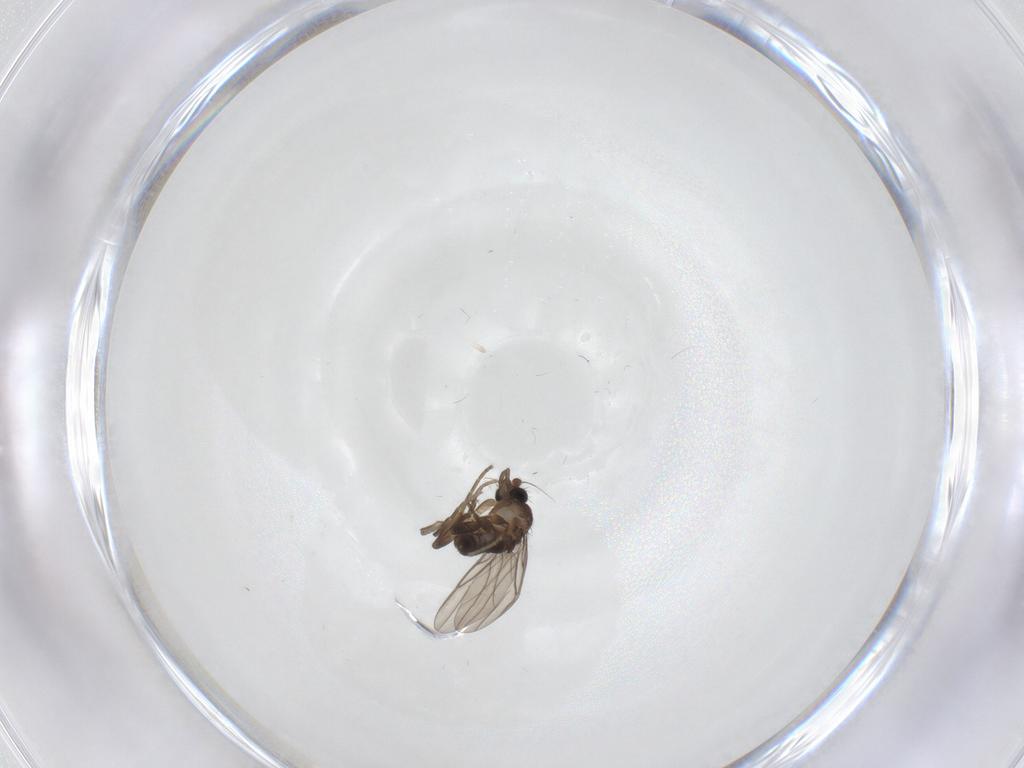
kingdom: Animalia
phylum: Arthropoda
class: Insecta
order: Diptera
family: Phoridae
